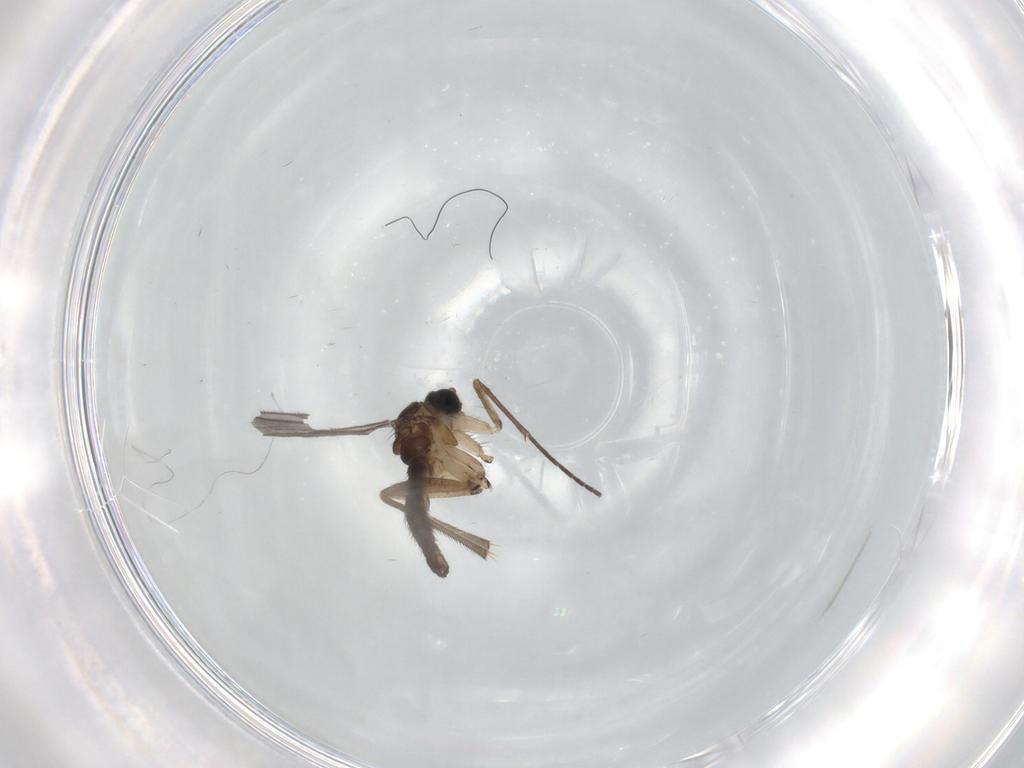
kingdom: Animalia
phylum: Arthropoda
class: Insecta
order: Diptera
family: Sciaridae
